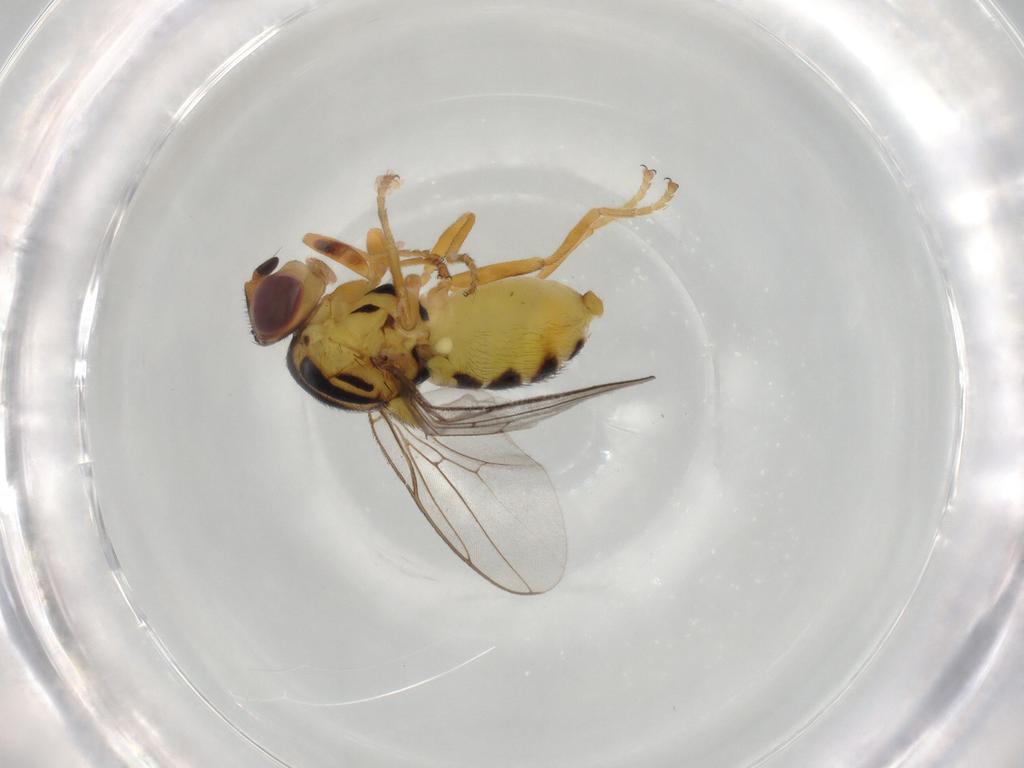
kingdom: Animalia
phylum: Arthropoda
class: Insecta
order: Diptera
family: Chloropidae
